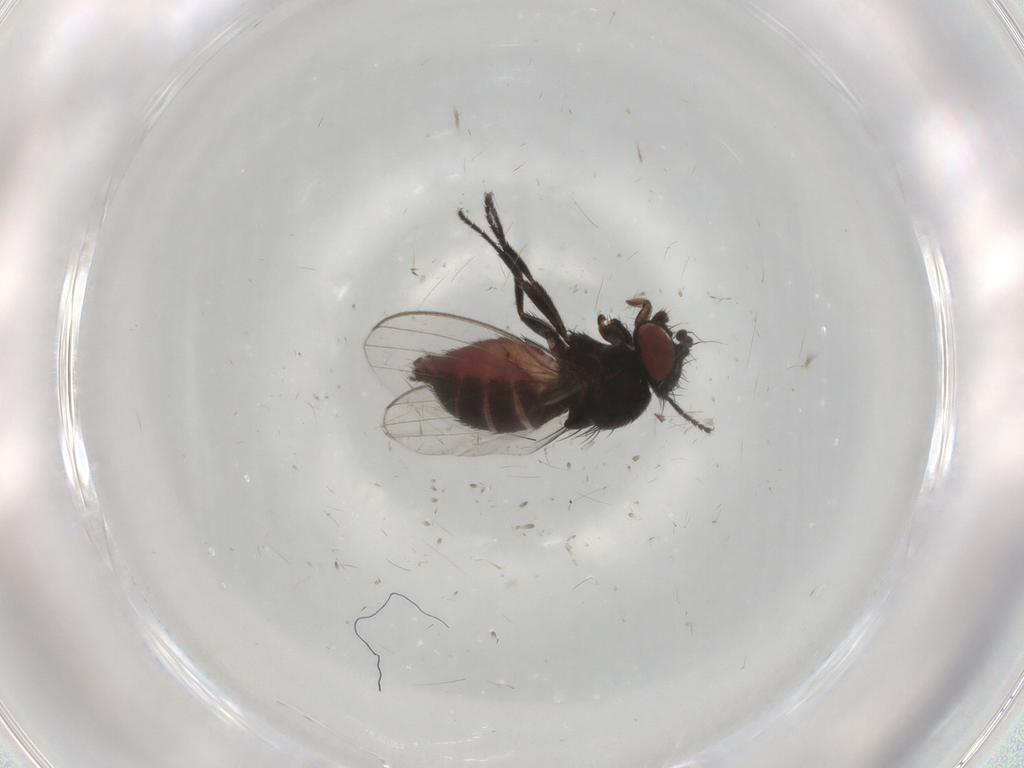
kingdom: Animalia
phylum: Arthropoda
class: Insecta
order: Diptera
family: Milichiidae
